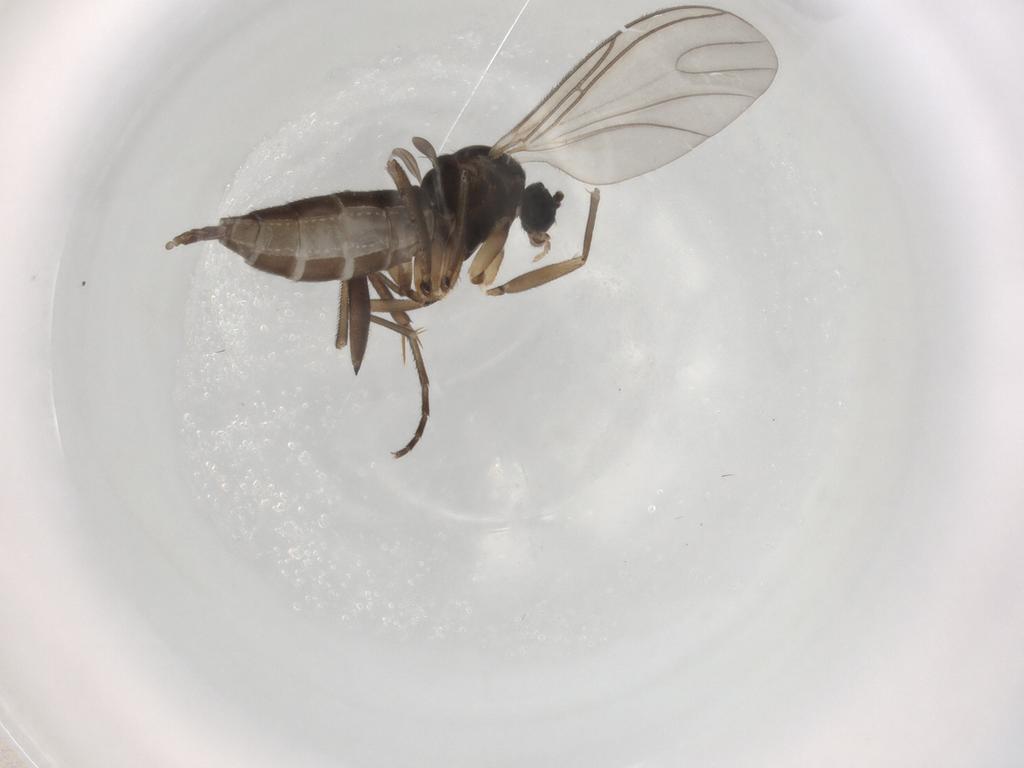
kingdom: Animalia
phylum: Arthropoda
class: Insecta
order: Diptera
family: Sciaridae
